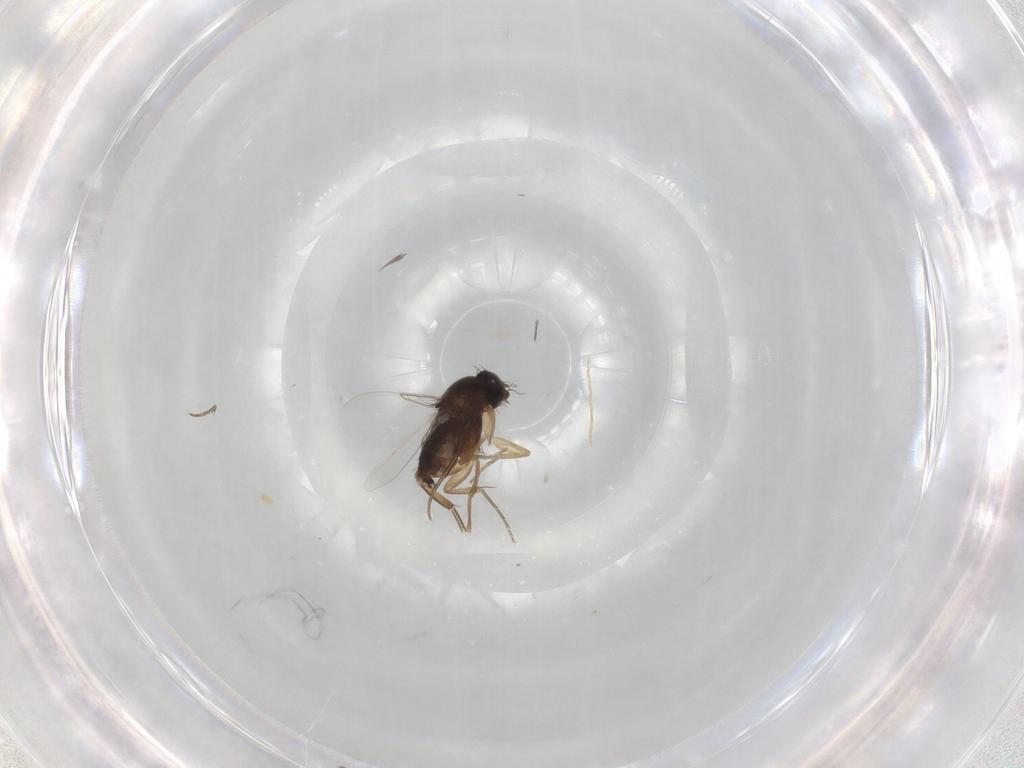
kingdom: Animalia
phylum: Arthropoda
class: Insecta
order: Diptera
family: Phoridae
